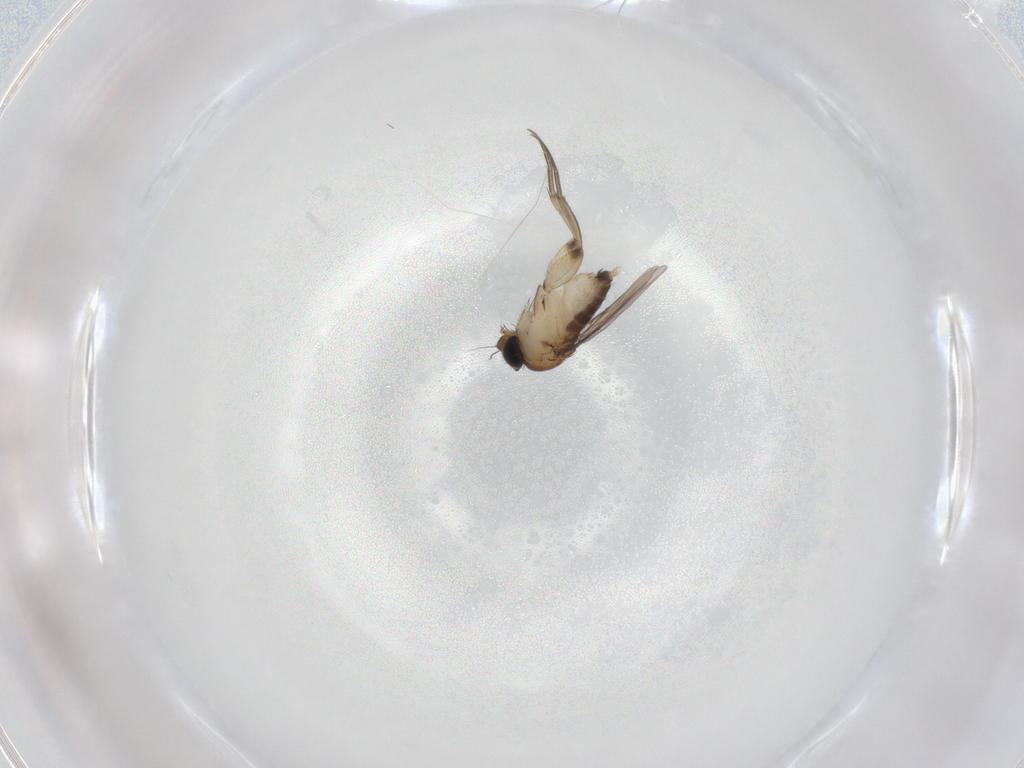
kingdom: Animalia
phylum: Arthropoda
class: Insecta
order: Diptera
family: Phoridae
